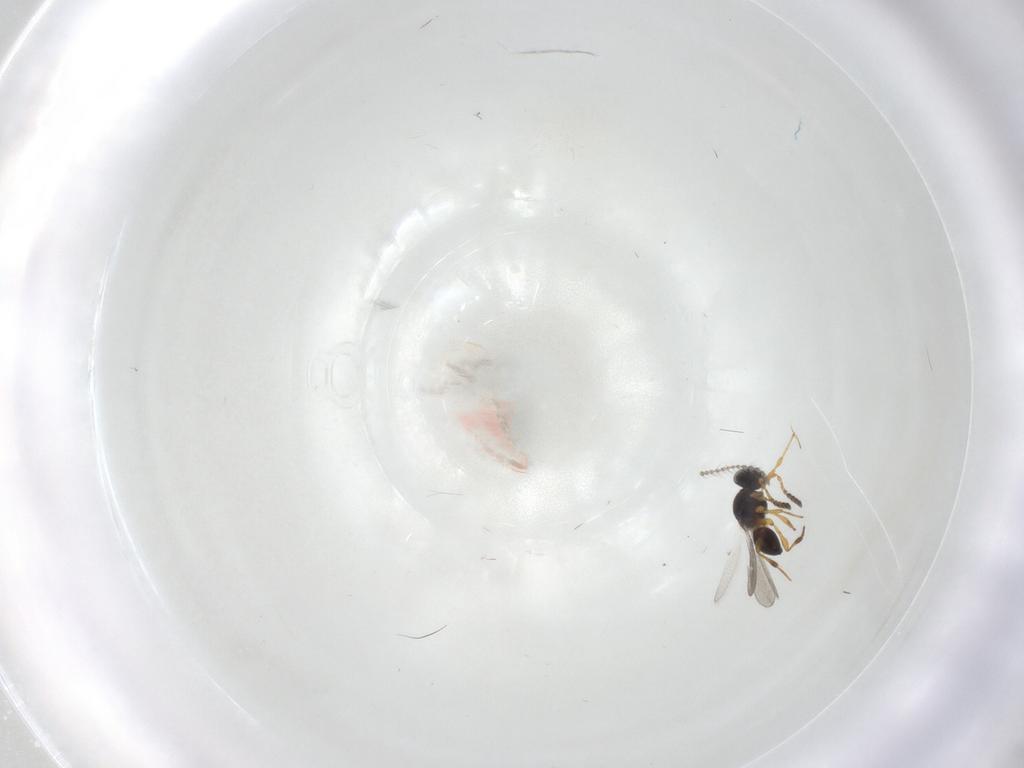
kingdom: Animalia
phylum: Arthropoda
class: Insecta
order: Hymenoptera
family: Platygastridae
